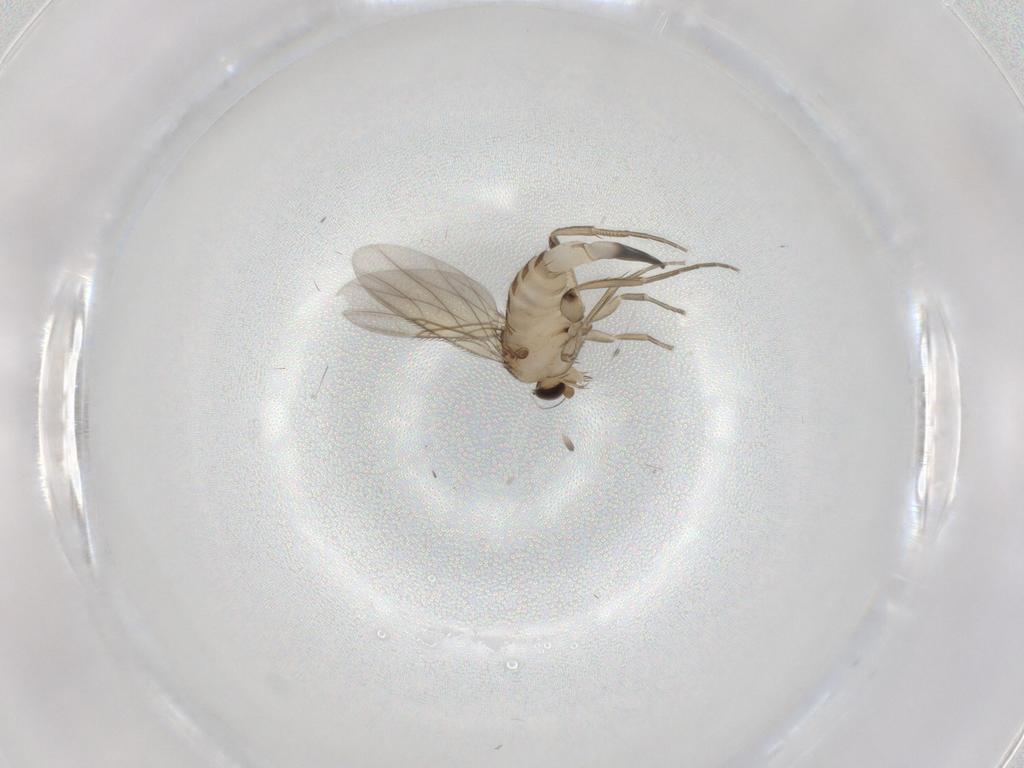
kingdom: Animalia
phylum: Arthropoda
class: Insecta
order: Diptera
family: Phoridae
